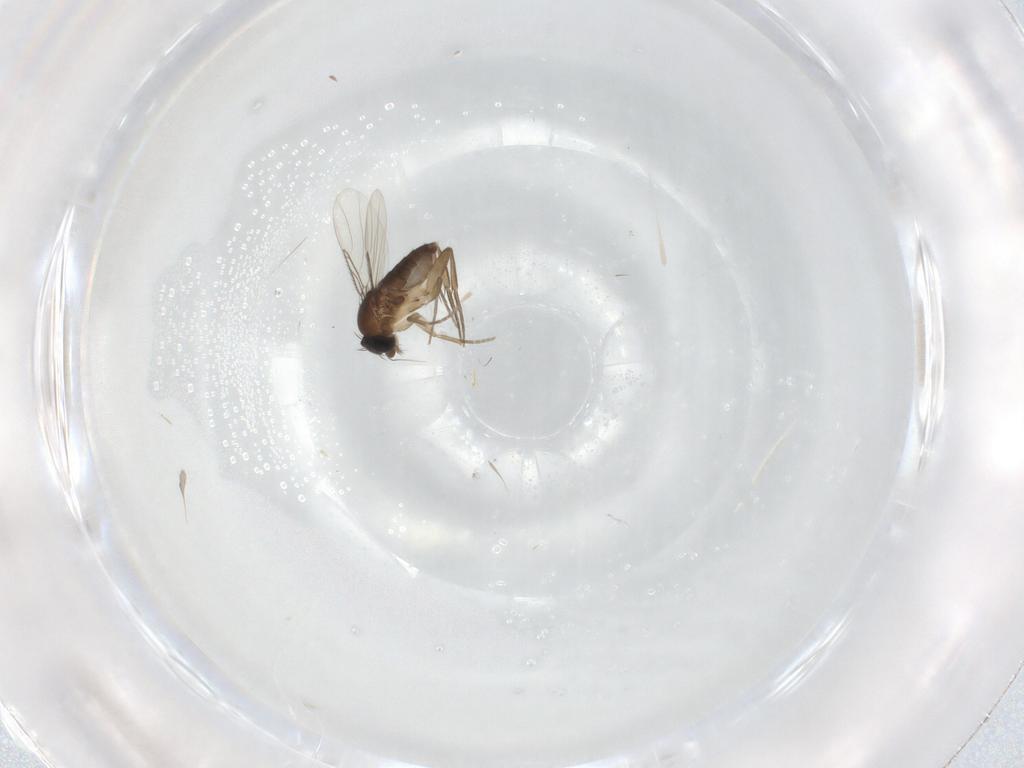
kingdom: Animalia
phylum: Arthropoda
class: Insecta
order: Diptera
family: Phoridae
